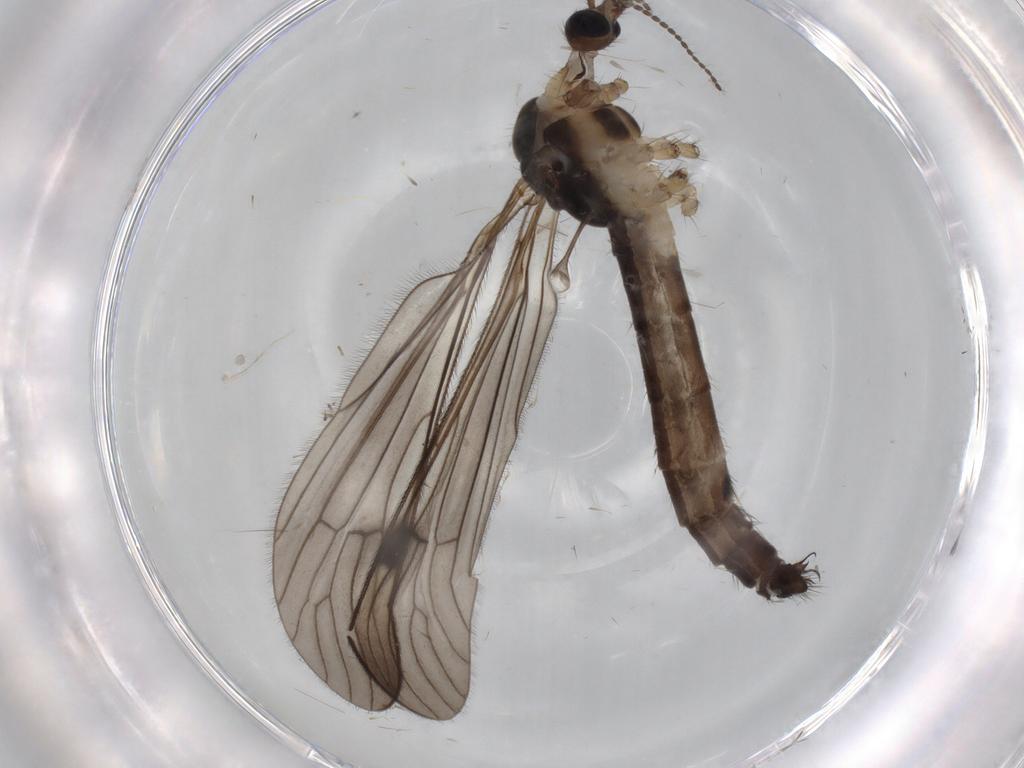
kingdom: Animalia
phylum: Arthropoda
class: Insecta
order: Diptera
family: Limoniidae
